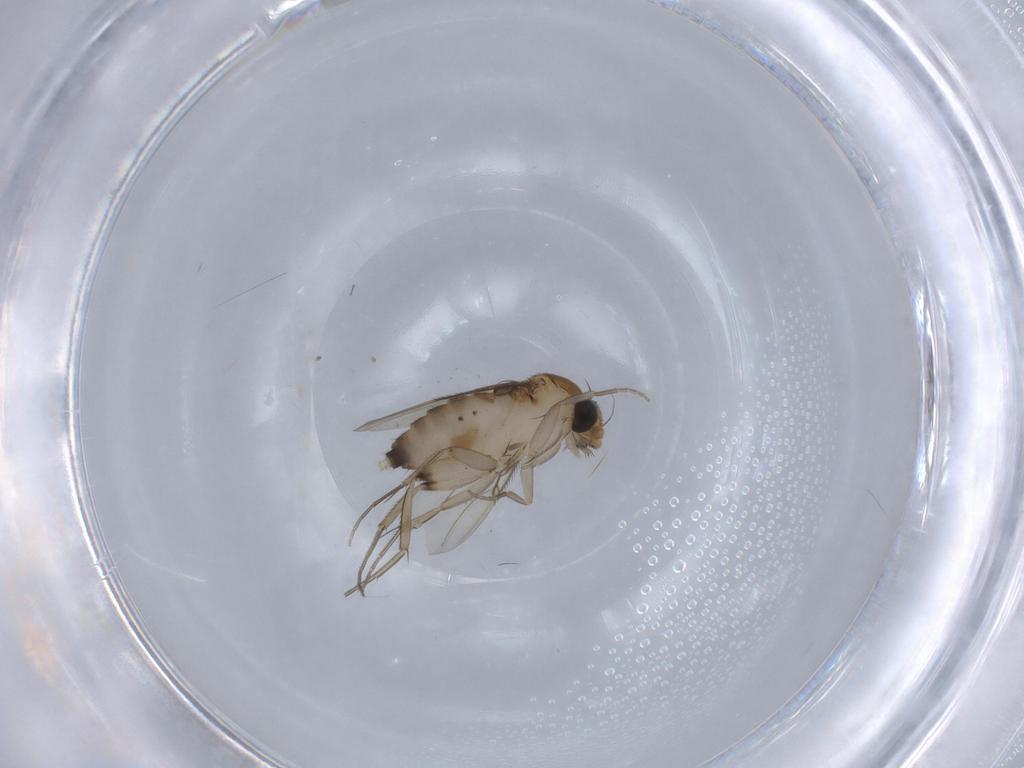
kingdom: Animalia
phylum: Arthropoda
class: Insecta
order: Diptera
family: Phoridae
